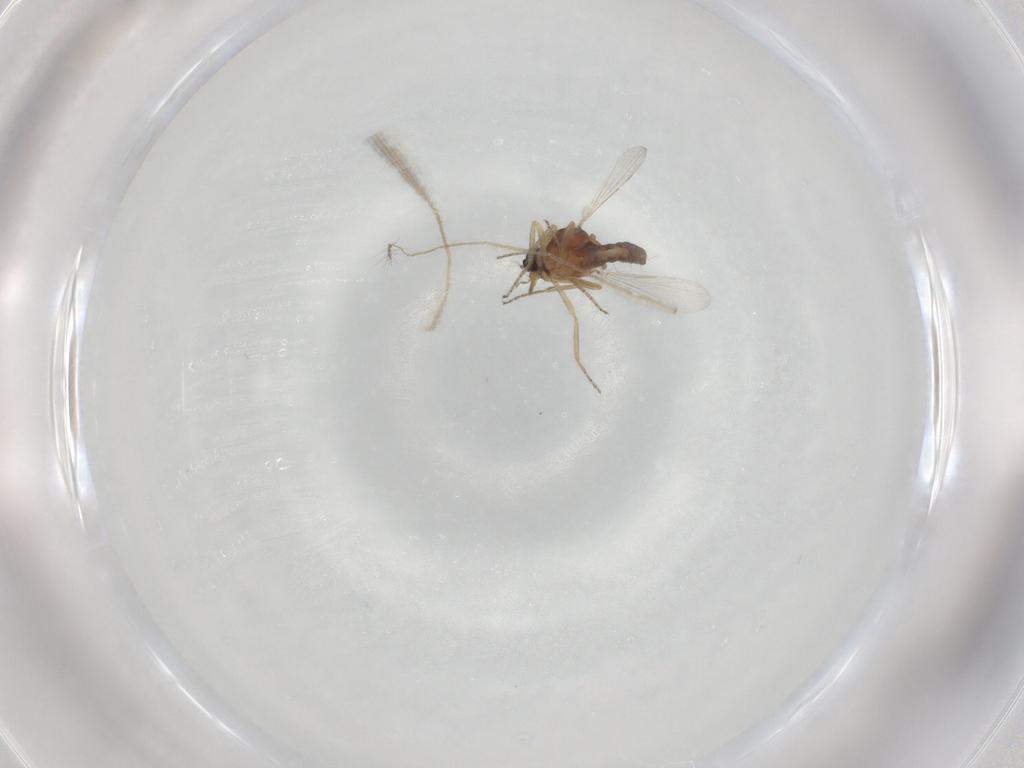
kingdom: Animalia
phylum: Arthropoda
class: Insecta
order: Diptera
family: Ceratopogonidae
